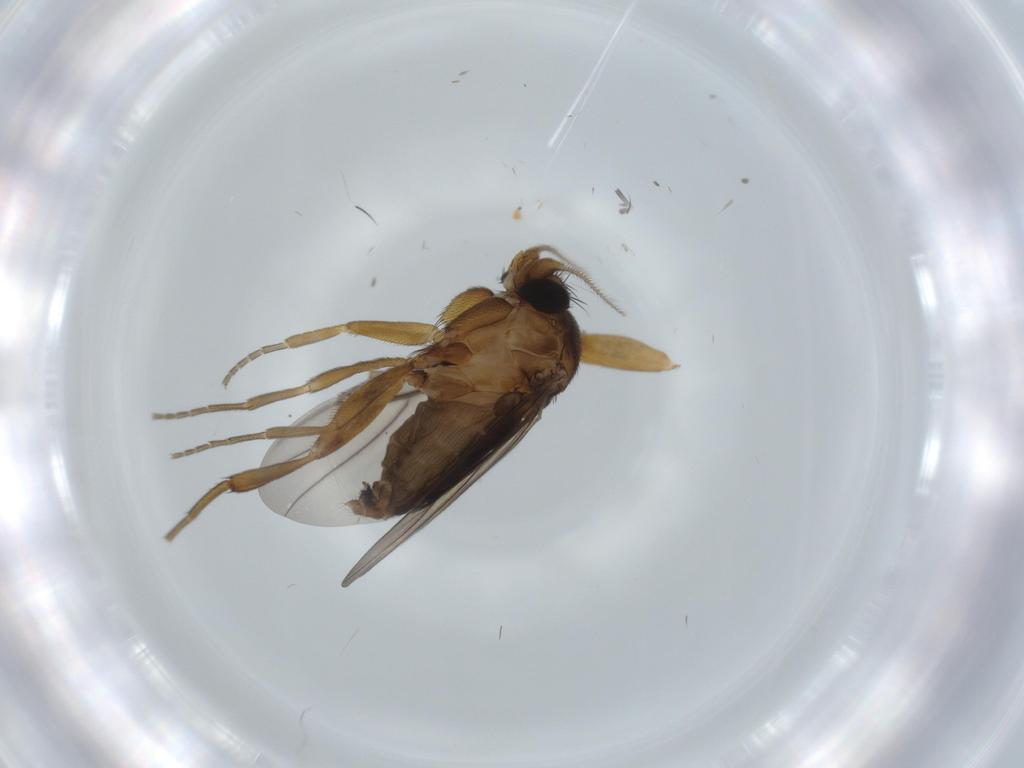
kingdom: Animalia
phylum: Arthropoda
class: Insecta
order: Diptera
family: Cecidomyiidae
